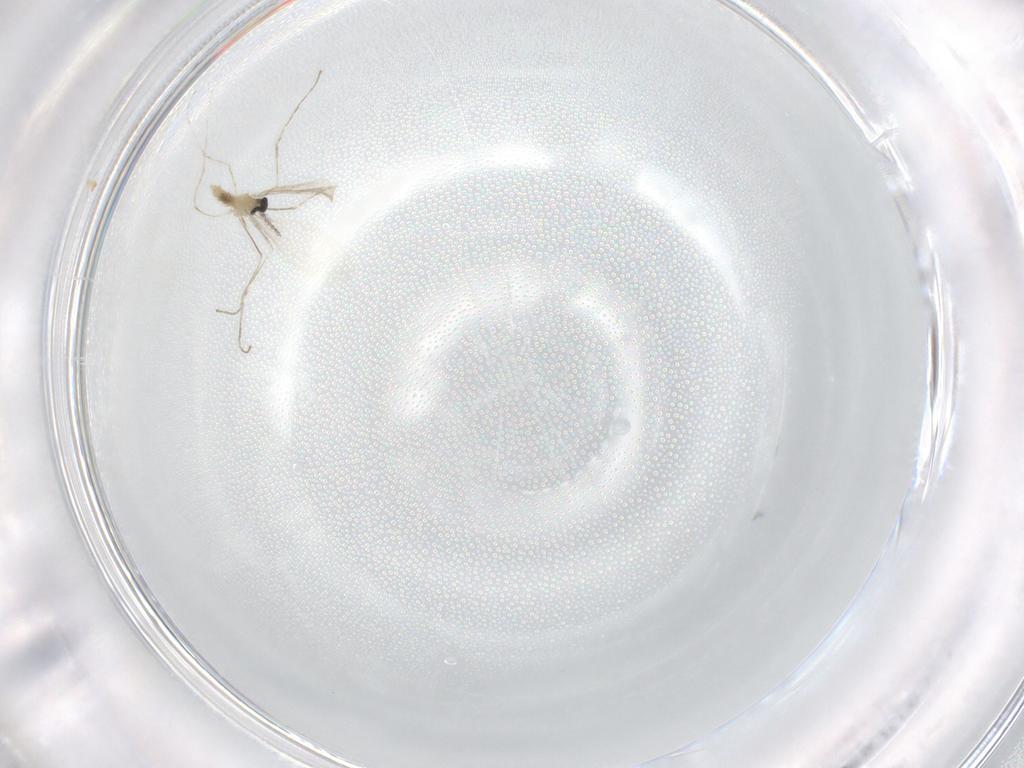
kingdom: Animalia
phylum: Arthropoda
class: Insecta
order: Diptera
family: Cecidomyiidae
